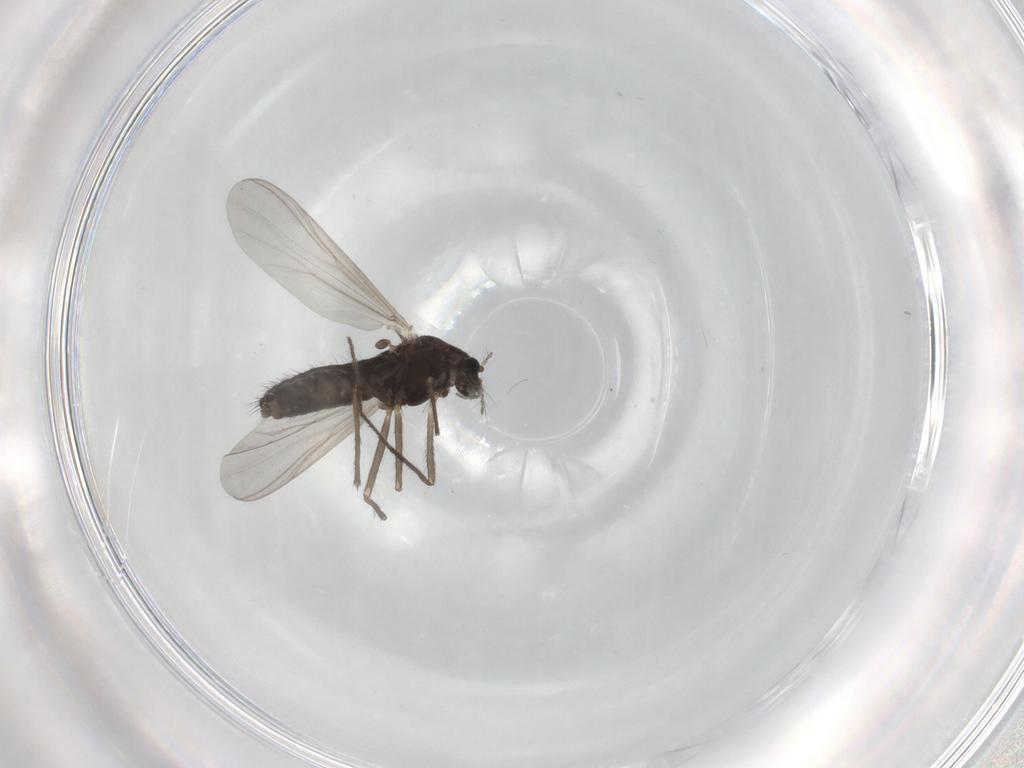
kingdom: Animalia
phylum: Arthropoda
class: Insecta
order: Diptera
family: Chironomidae
